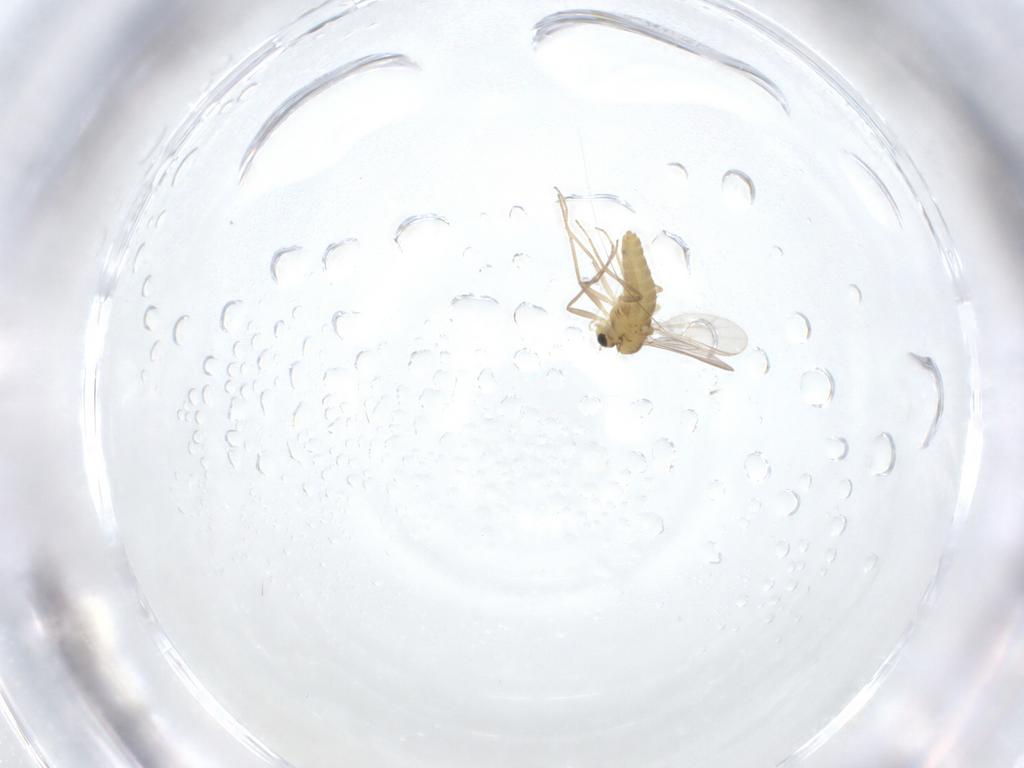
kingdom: Animalia
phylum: Arthropoda
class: Insecta
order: Diptera
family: Chironomidae
